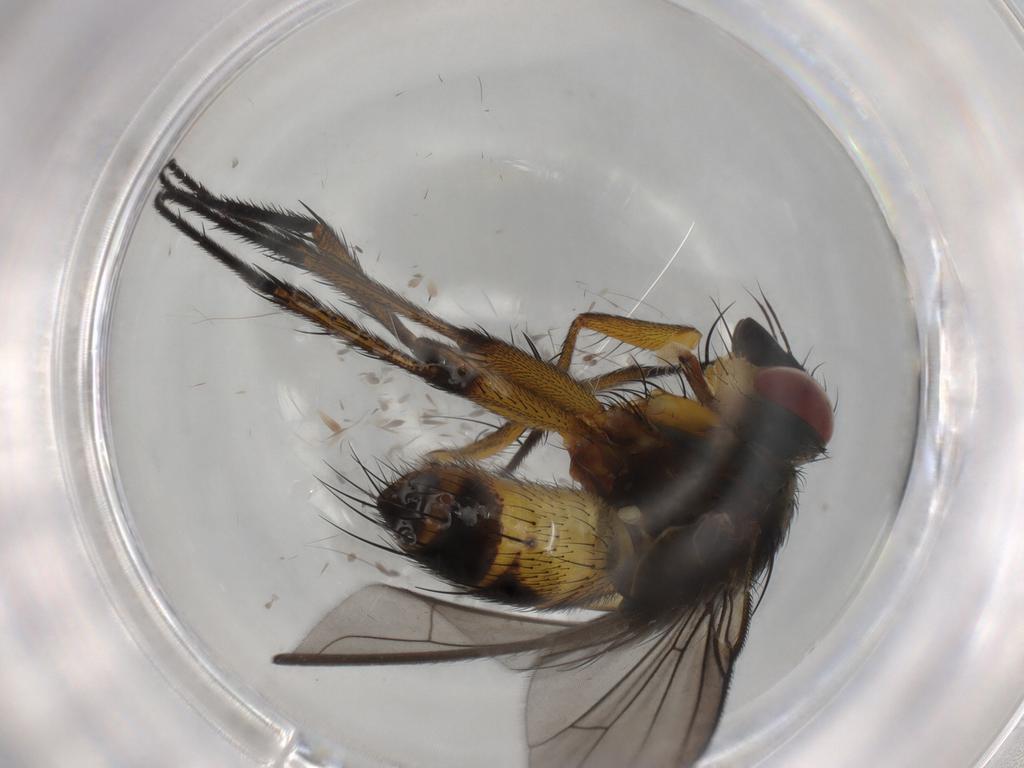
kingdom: Animalia
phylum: Arthropoda
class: Insecta
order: Diptera
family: Tachinidae
